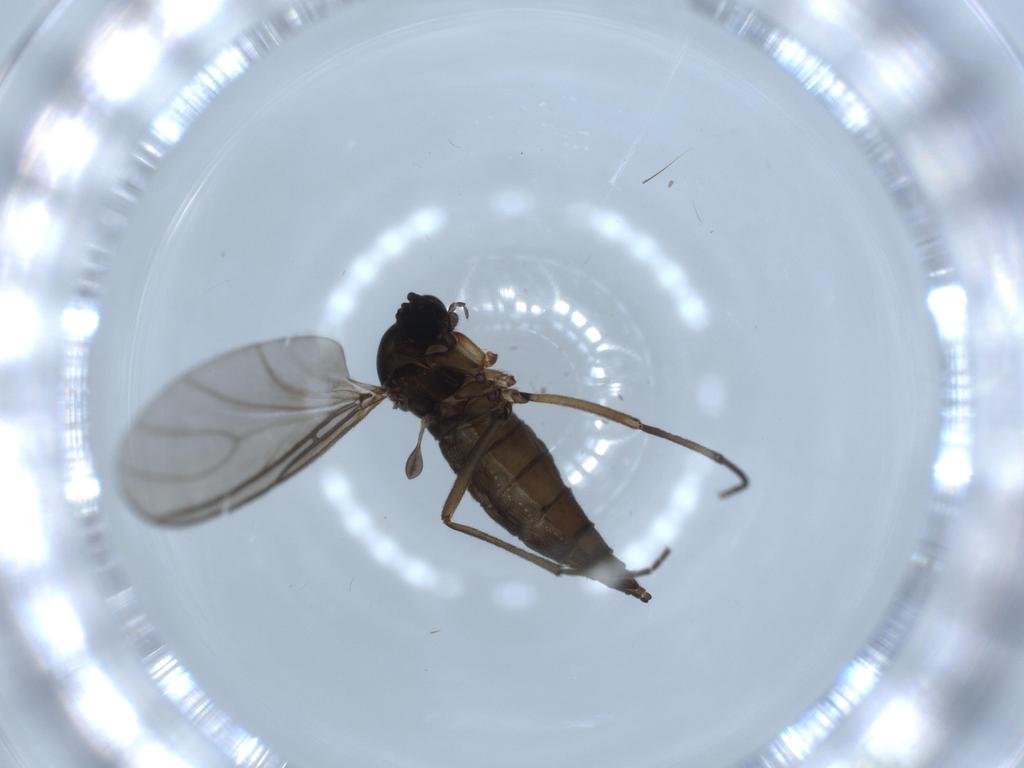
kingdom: Animalia
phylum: Arthropoda
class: Insecta
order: Diptera
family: Sciaridae
